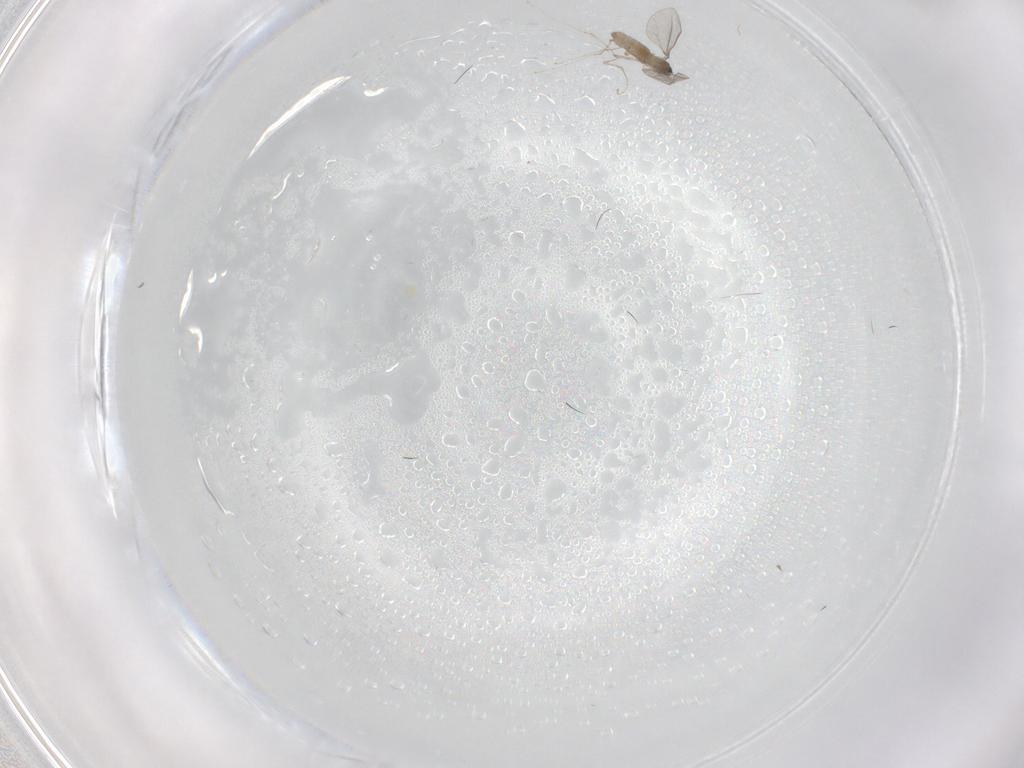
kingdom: Animalia
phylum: Arthropoda
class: Insecta
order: Diptera
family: Cecidomyiidae
